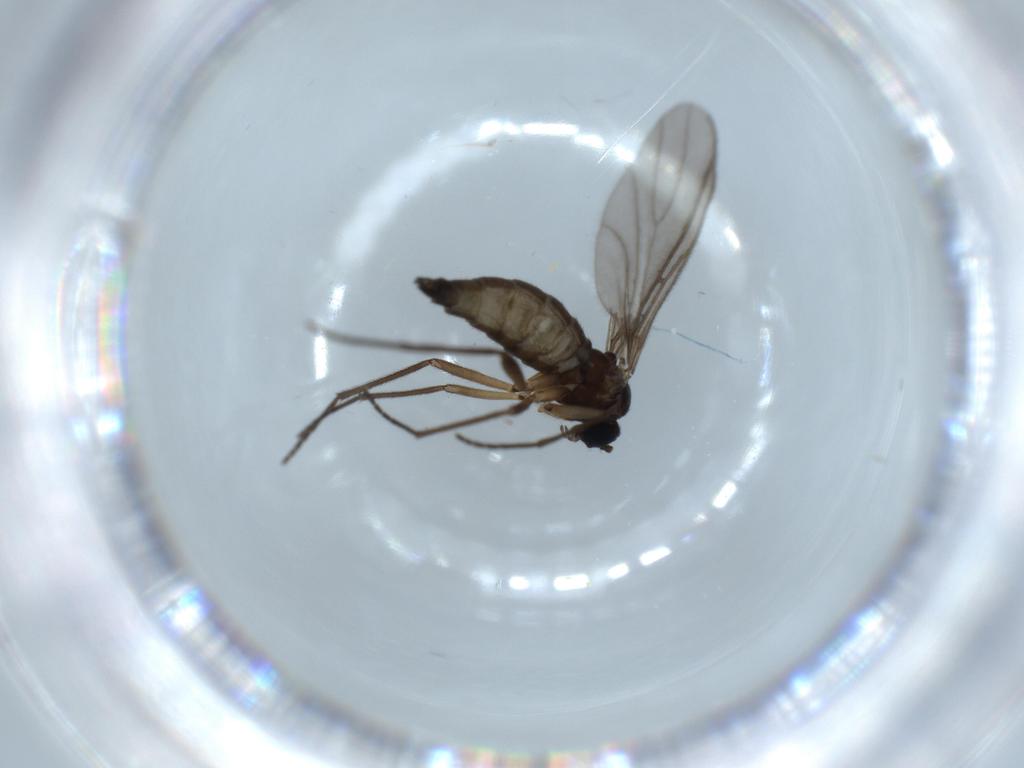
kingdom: Animalia
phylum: Arthropoda
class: Insecta
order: Diptera
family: Sciaridae
